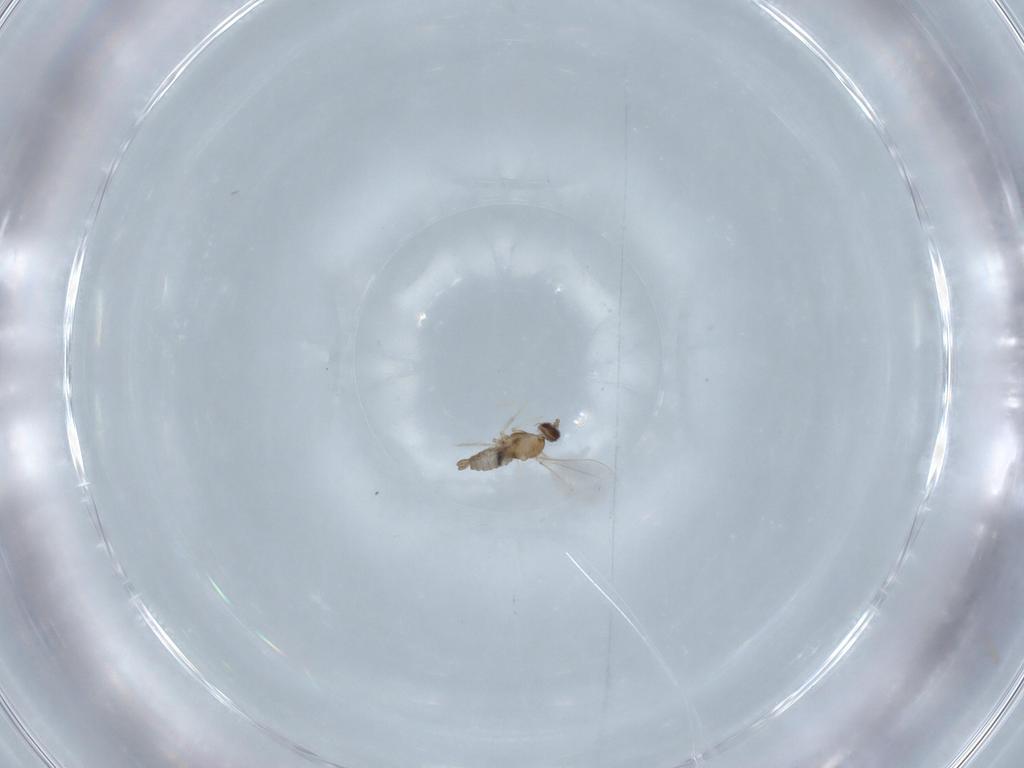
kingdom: Animalia
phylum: Arthropoda
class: Insecta
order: Diptera
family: Cecidomyiidae
